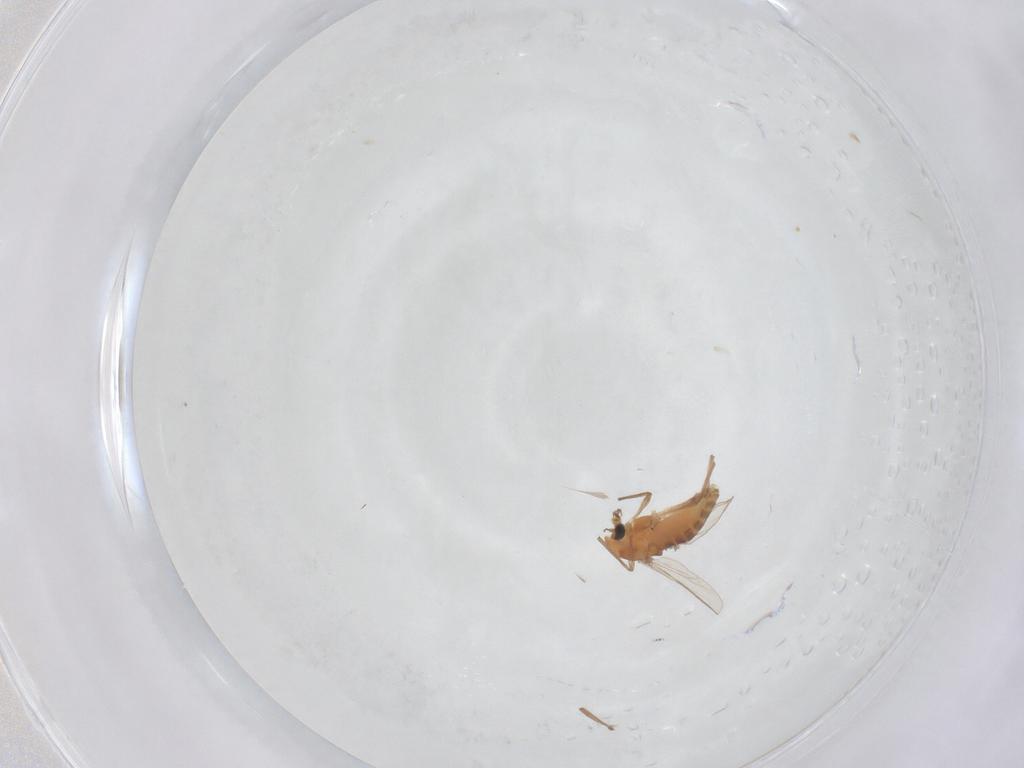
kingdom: Animalia
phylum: Arthropoda
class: Insecta
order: Diptera
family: Chironomidae
